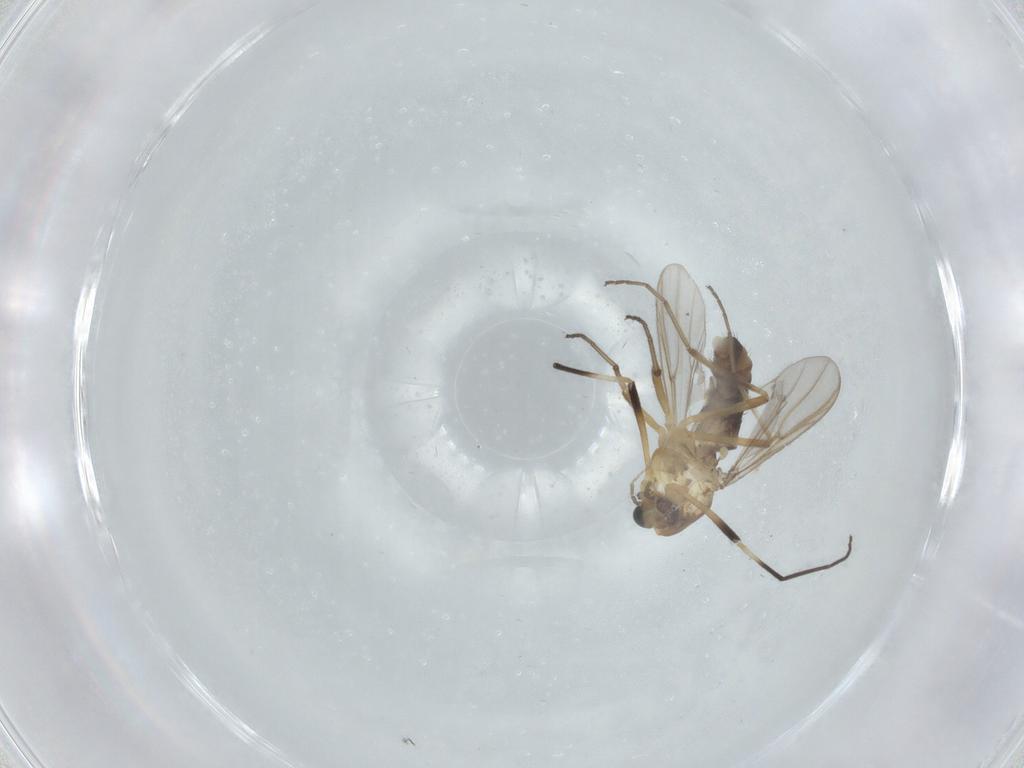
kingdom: Animalia
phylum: Arthropoda
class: Insecta
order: Diptera
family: Chironomidae
